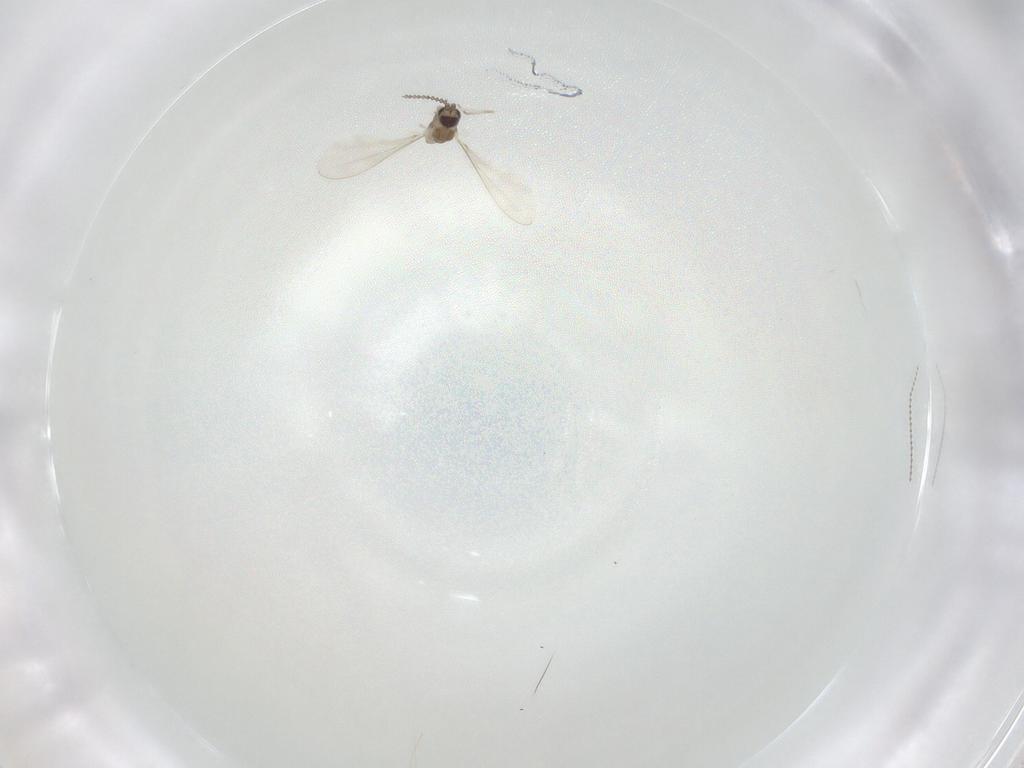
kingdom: Animalia
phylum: Arthropoda
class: Insecta
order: Diptera
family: Cecidomyiidae
